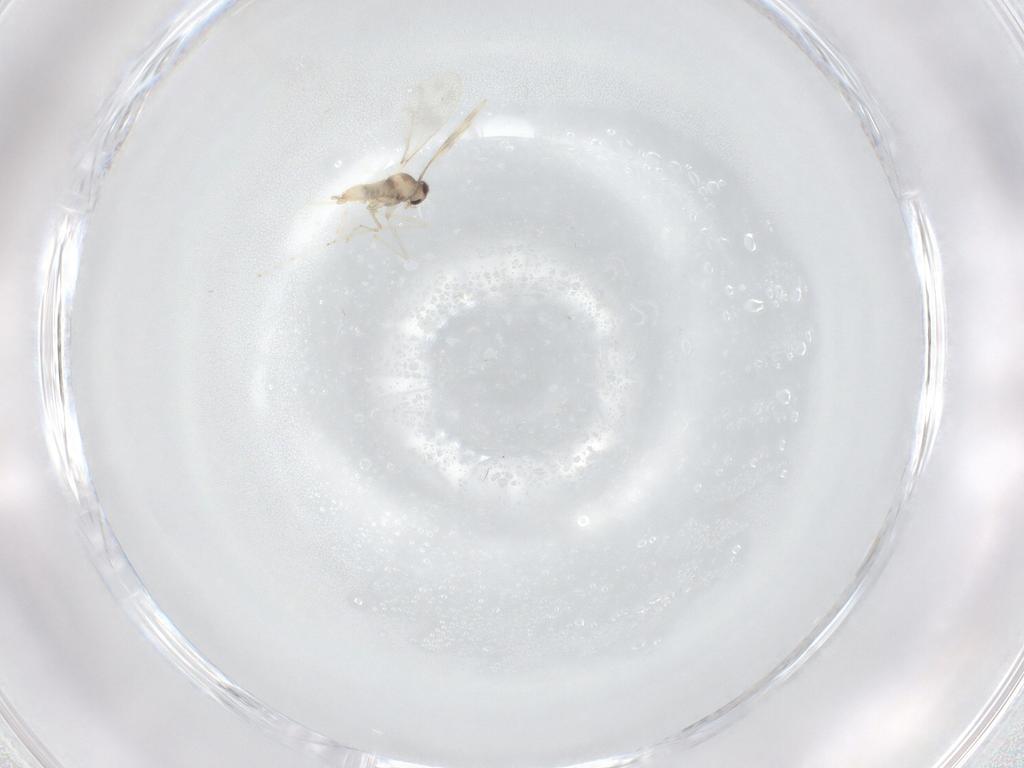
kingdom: Animalia
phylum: Arthropoda
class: Insecta
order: Diptera
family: Cecidomyiidae
